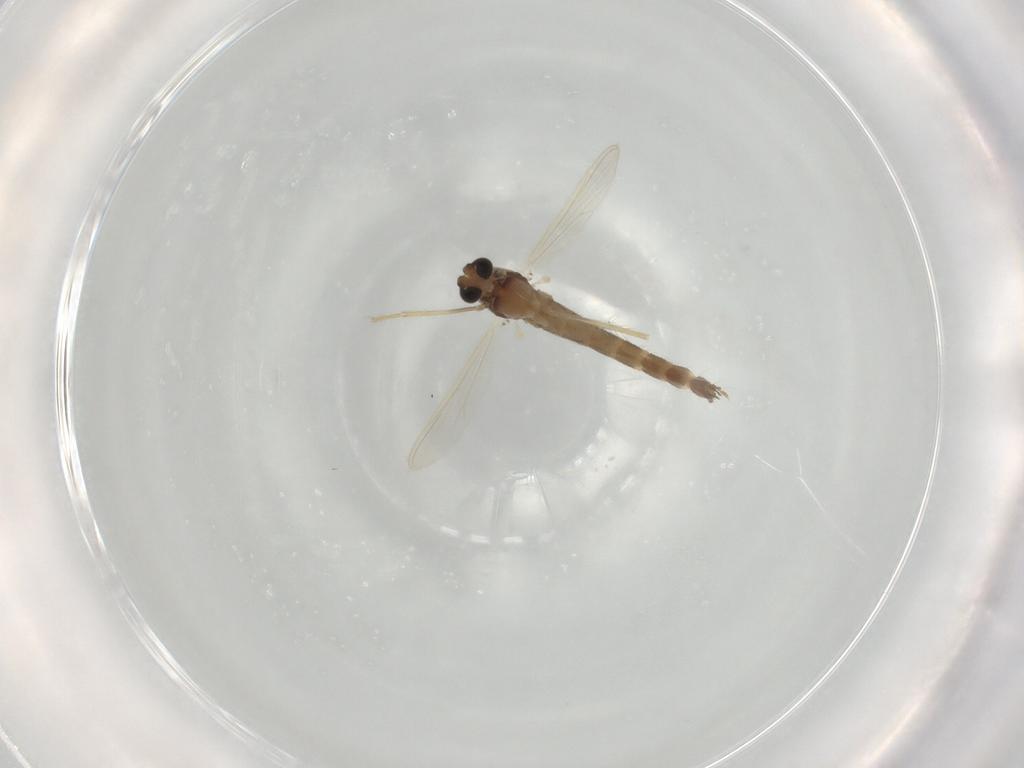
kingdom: Animalia
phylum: Arthropoda
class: Insecta
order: Diptera
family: Chironomidae
